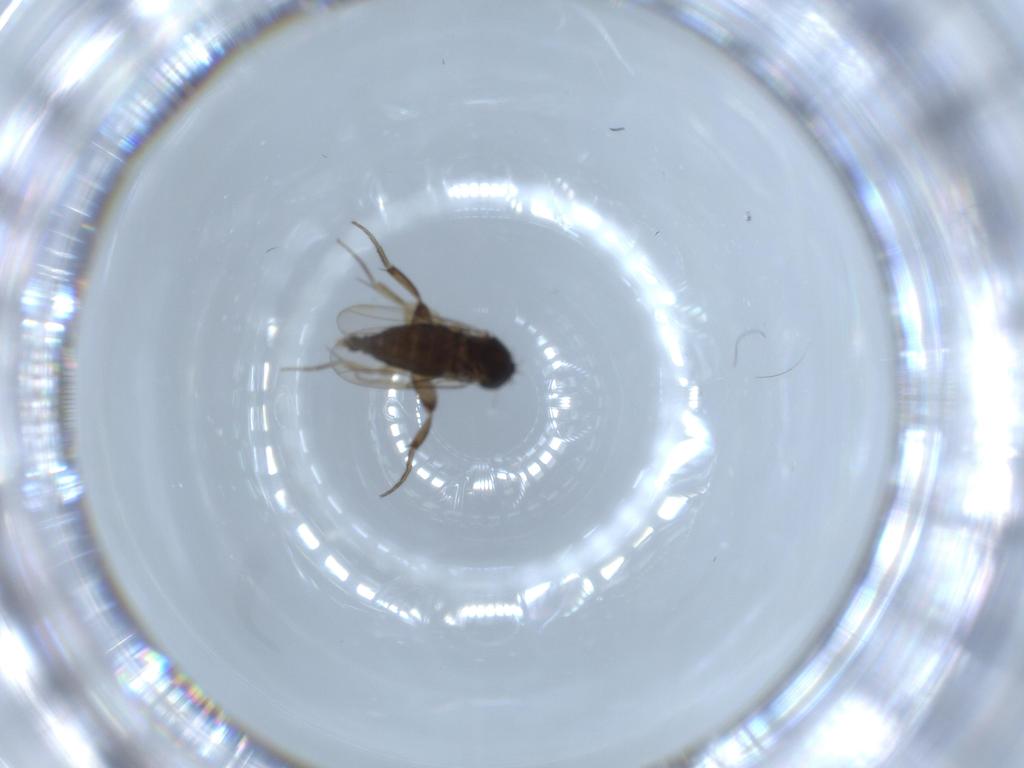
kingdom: Animalia
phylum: Arthropoda
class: Insecta
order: Diptera
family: Phoridae
